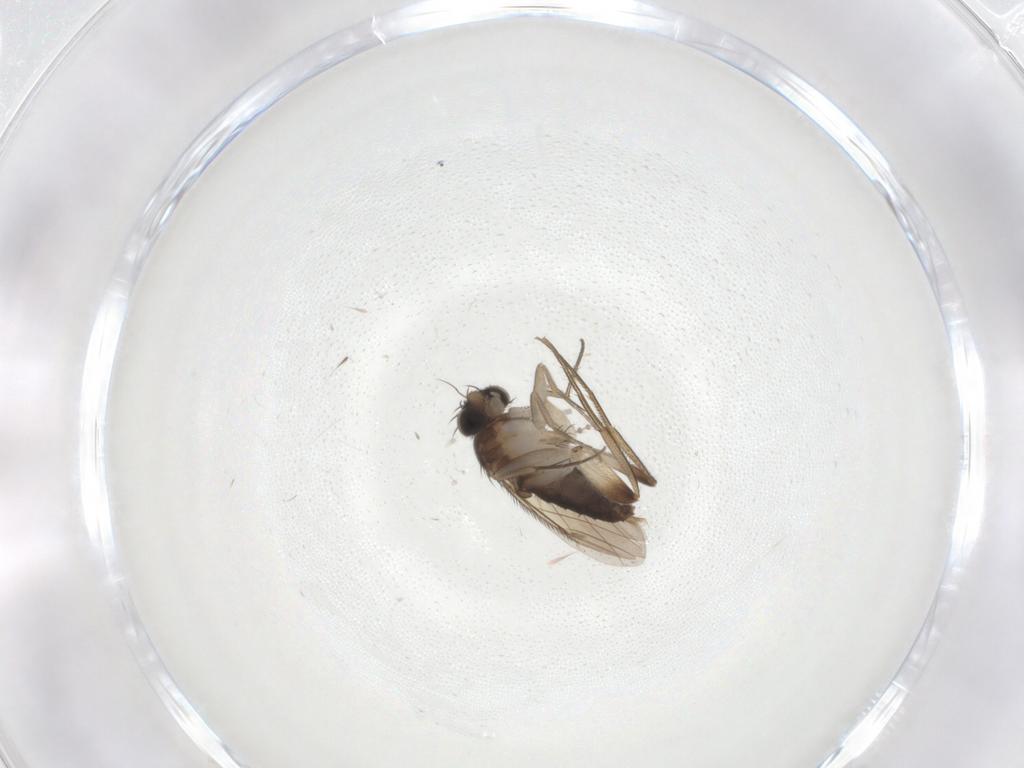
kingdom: Animalia
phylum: Arthropoda
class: Insecta
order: Diptera
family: Phoridae
